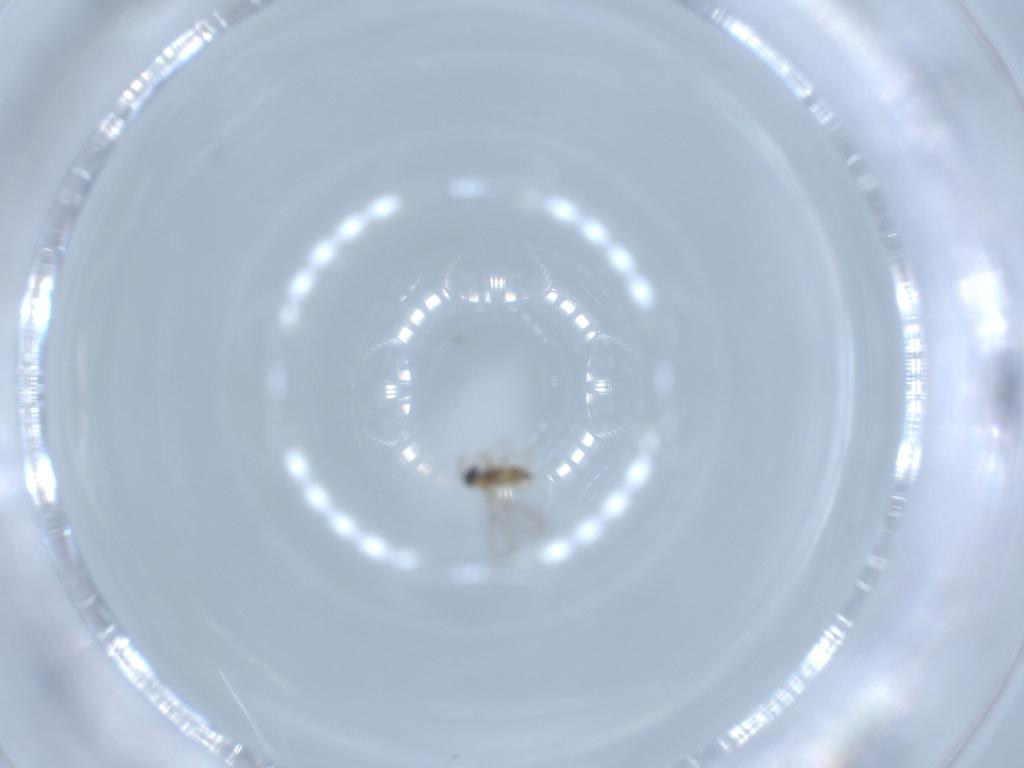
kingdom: Animalia
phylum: Arthropoda
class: Insecta
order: Hymenoptera
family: Trichogrammatidae
